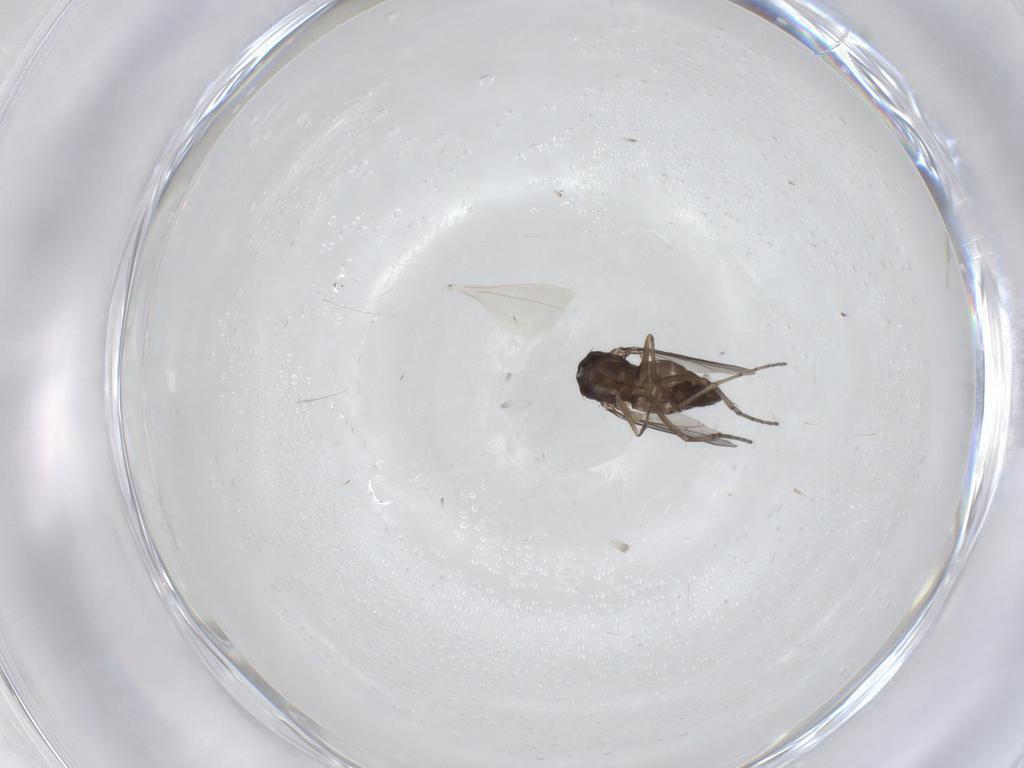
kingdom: Animalia
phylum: Arthropoda
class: Insecta
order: Diptera
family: Cecidomyiidae
